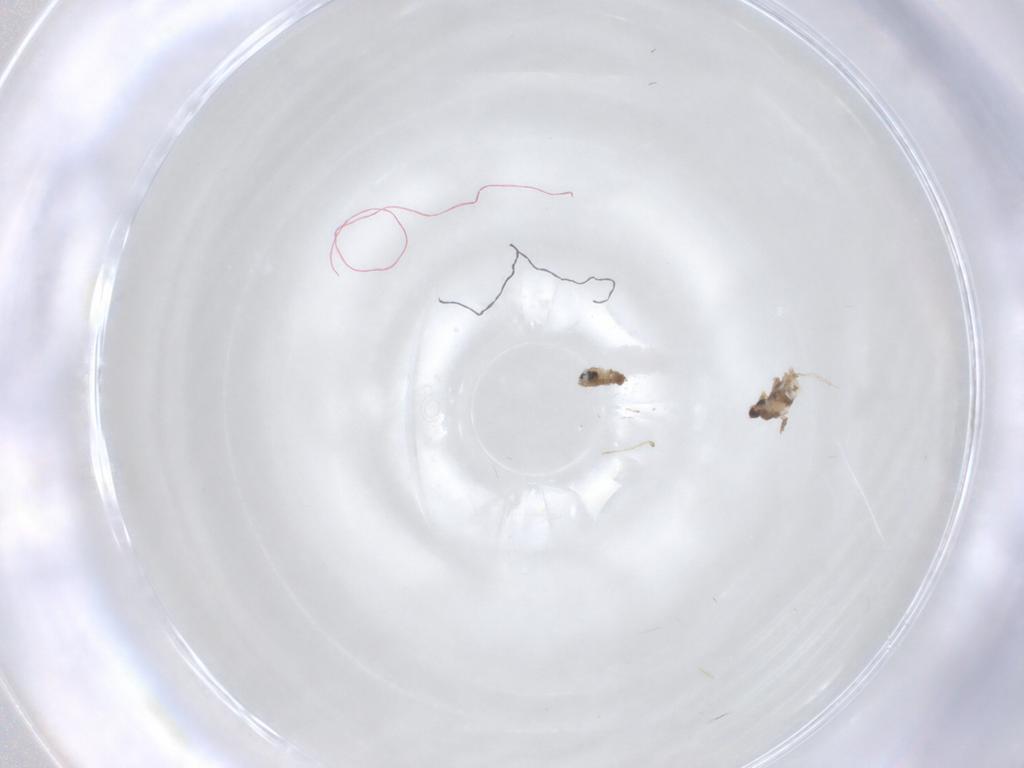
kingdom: Animalia
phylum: Arthropoda
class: Insecta
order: Diptera
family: Cecidomyiidae
